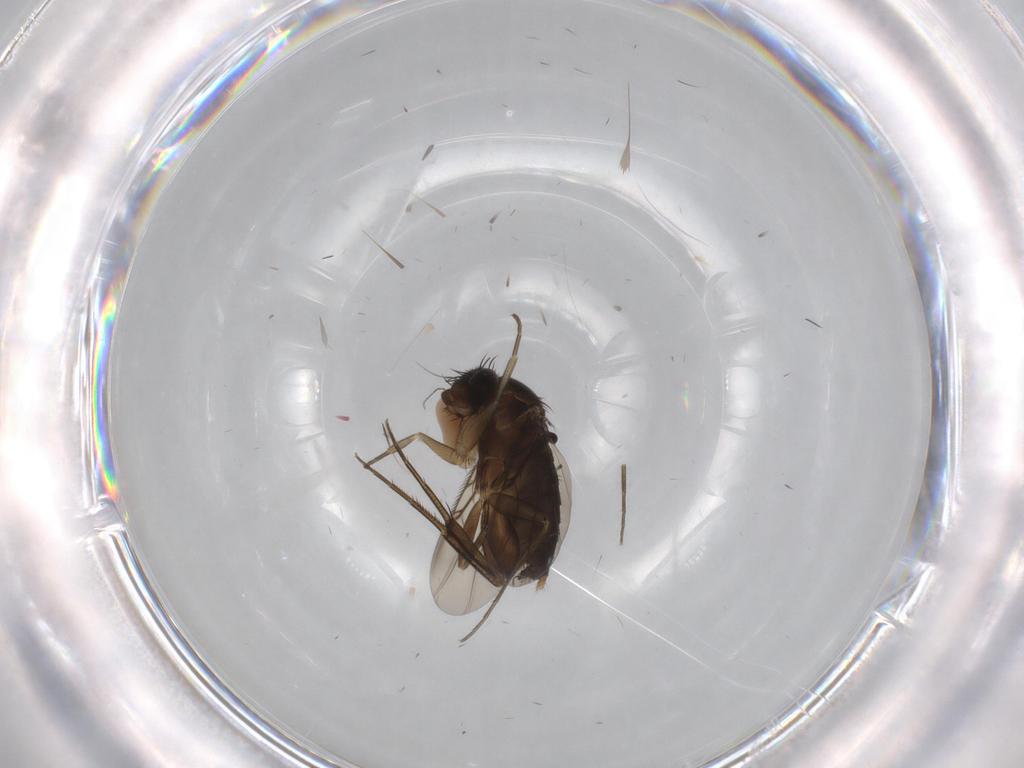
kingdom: Animalia
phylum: Arthropoda
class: Insecta
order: Diptera
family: Phoridae
